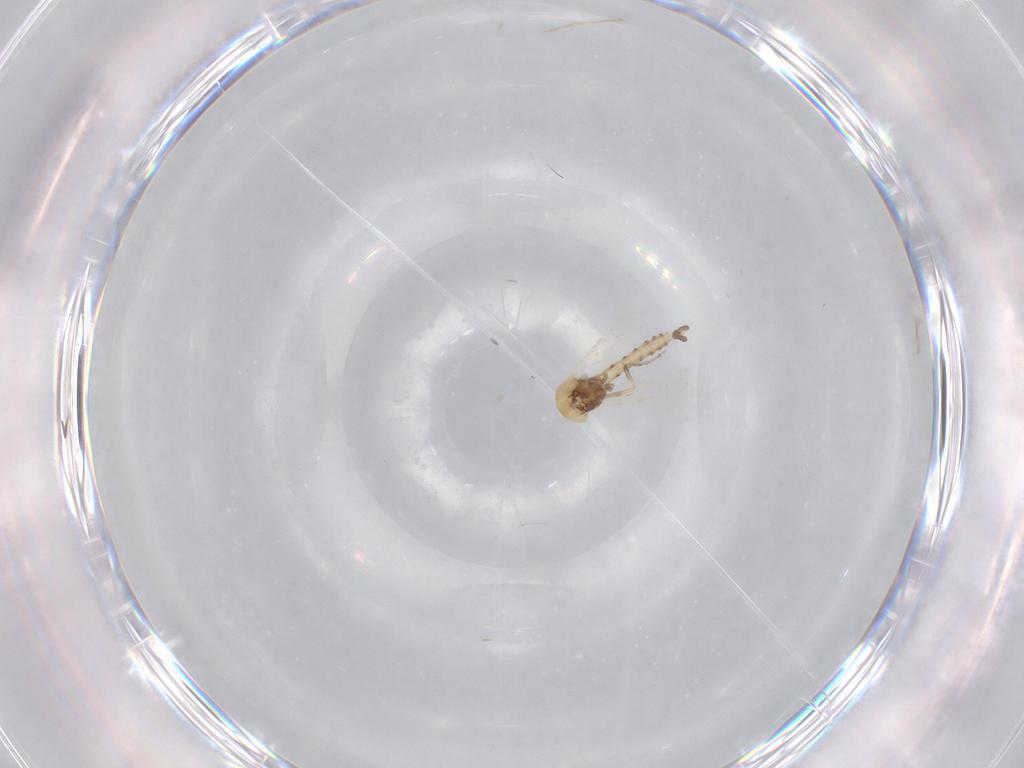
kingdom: Animalia
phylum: Arthropoda
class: Insecta
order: Diptera
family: Ceratopogonidae
